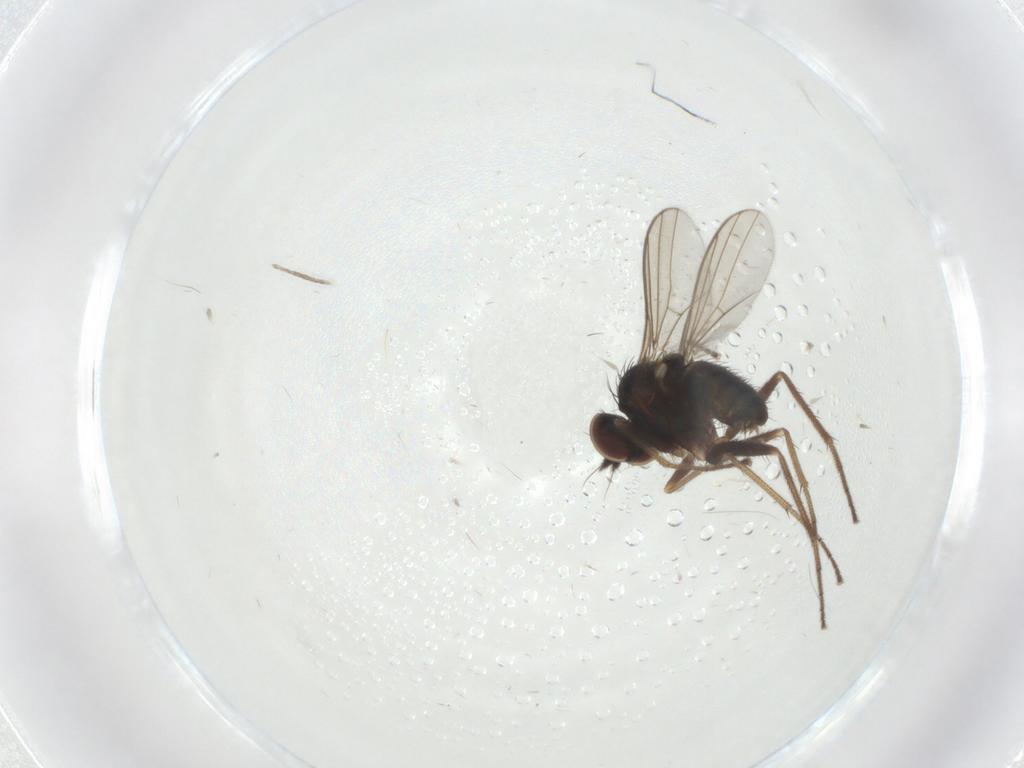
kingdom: Animalia
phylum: Arthropoda
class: Insecta
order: Diptera
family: Dolichopodidae
